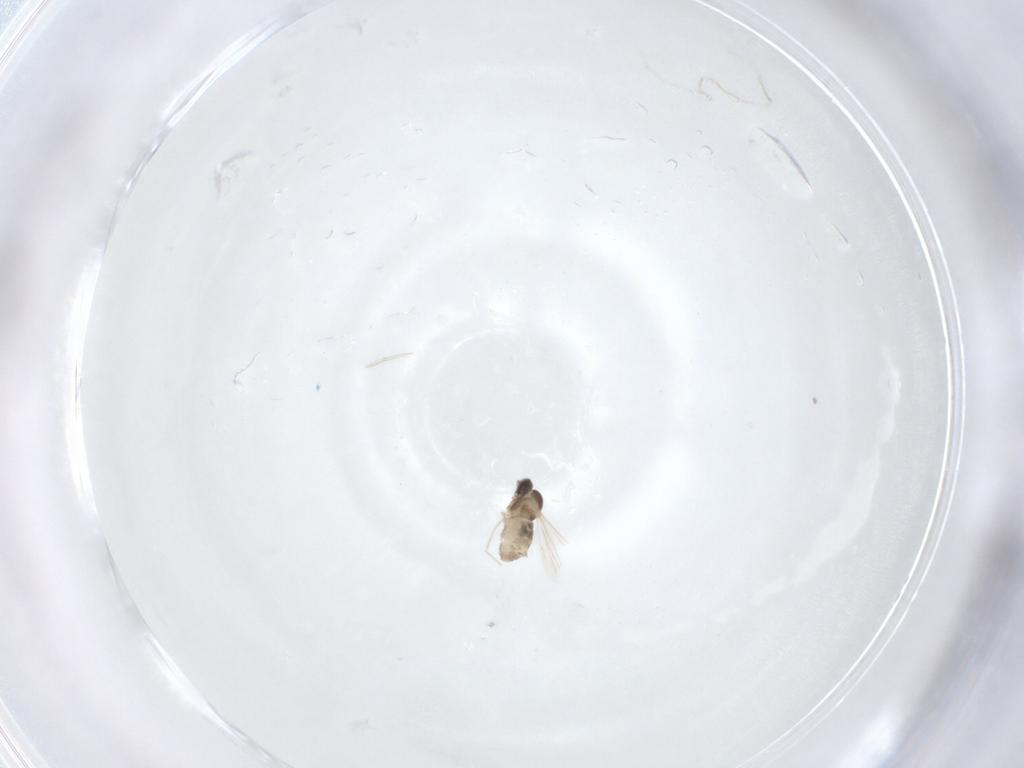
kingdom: Animalia
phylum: Arthropoda
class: Insecta
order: Diptera
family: Cecidomyiidae
